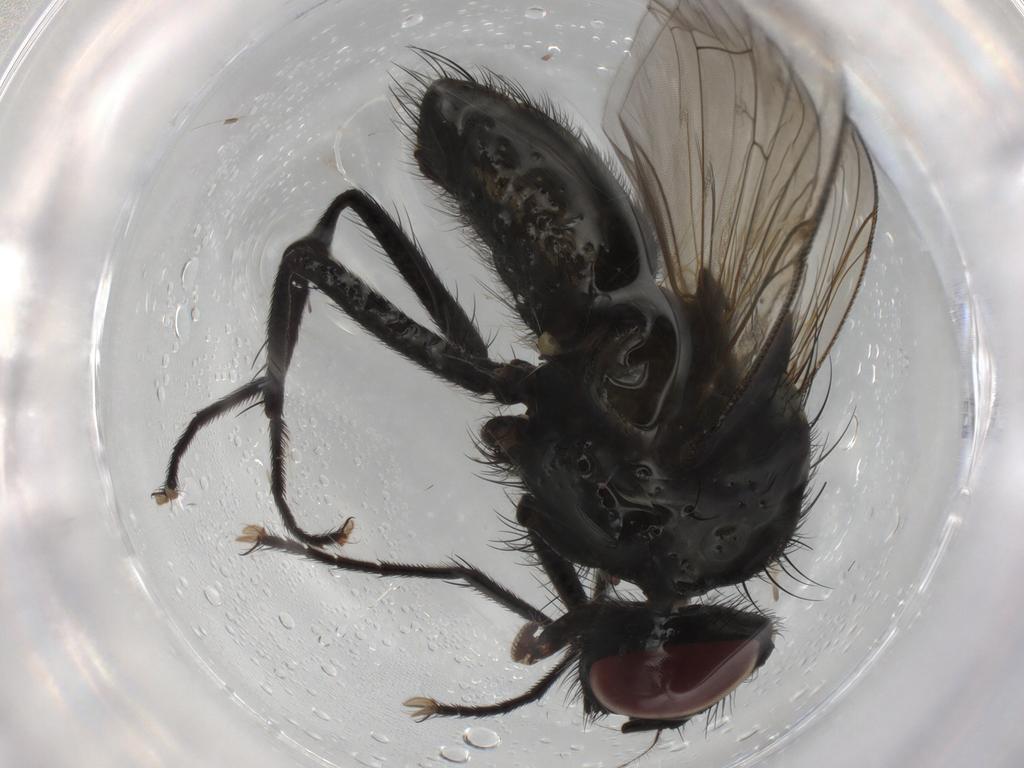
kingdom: Animalia
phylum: Arthropoda
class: Insecta
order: Diptera
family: Muscidae
